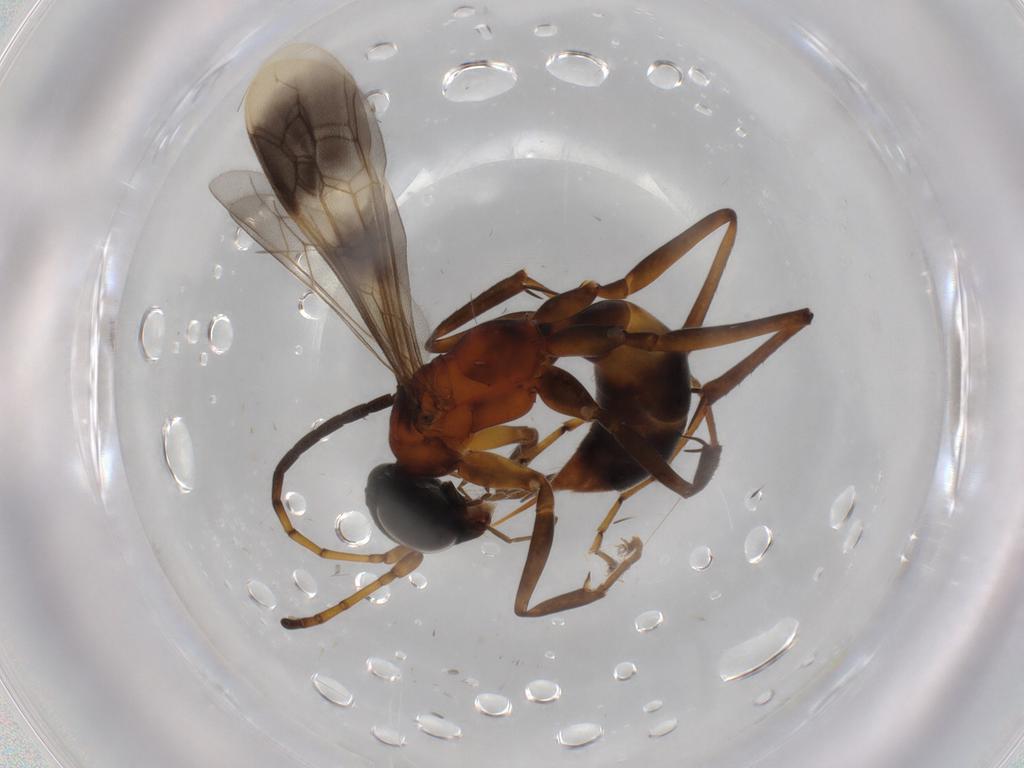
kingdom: Animalia
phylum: Arthropoda
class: Insecta
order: Hymenoptera
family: Pompilidae
